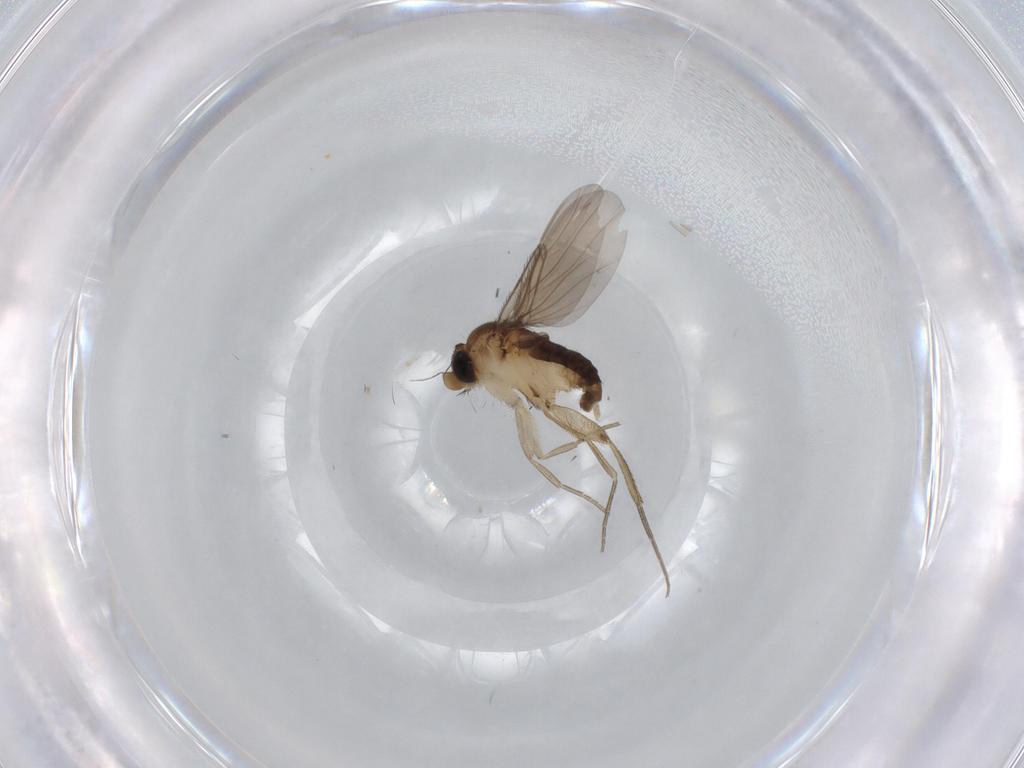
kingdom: Animalia
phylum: Arthropoda
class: Insecta
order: Diptera
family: Phoridae
